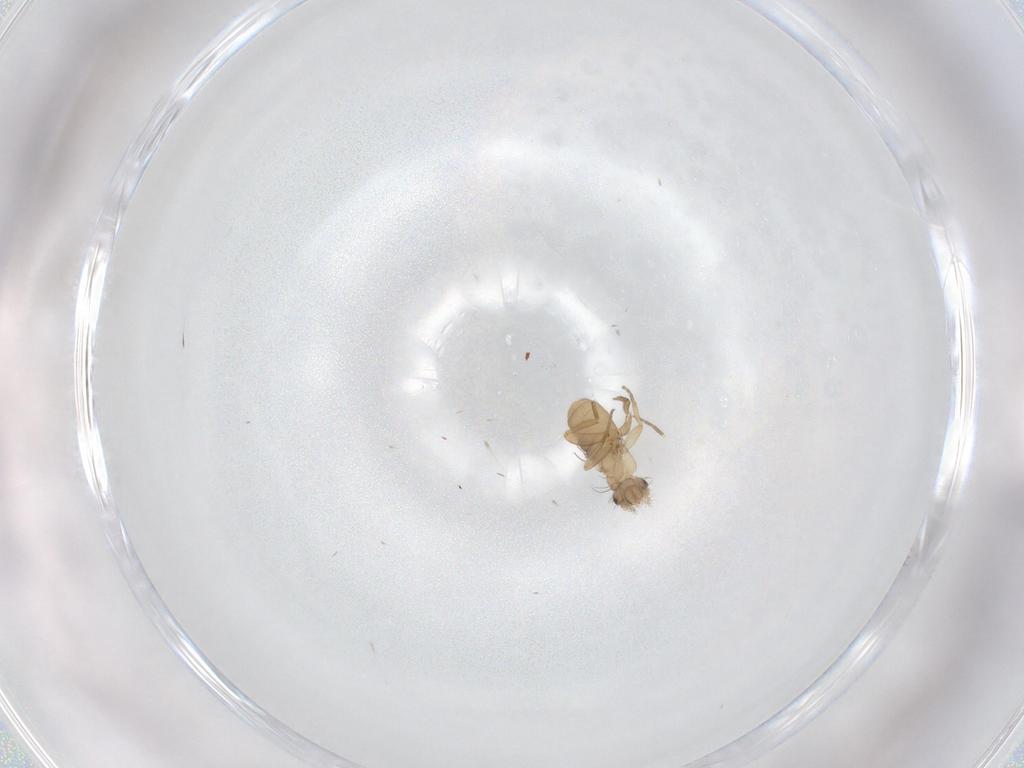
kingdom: Animalia
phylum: Arthropoda
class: Insecta
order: Diptera
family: Phoridae
